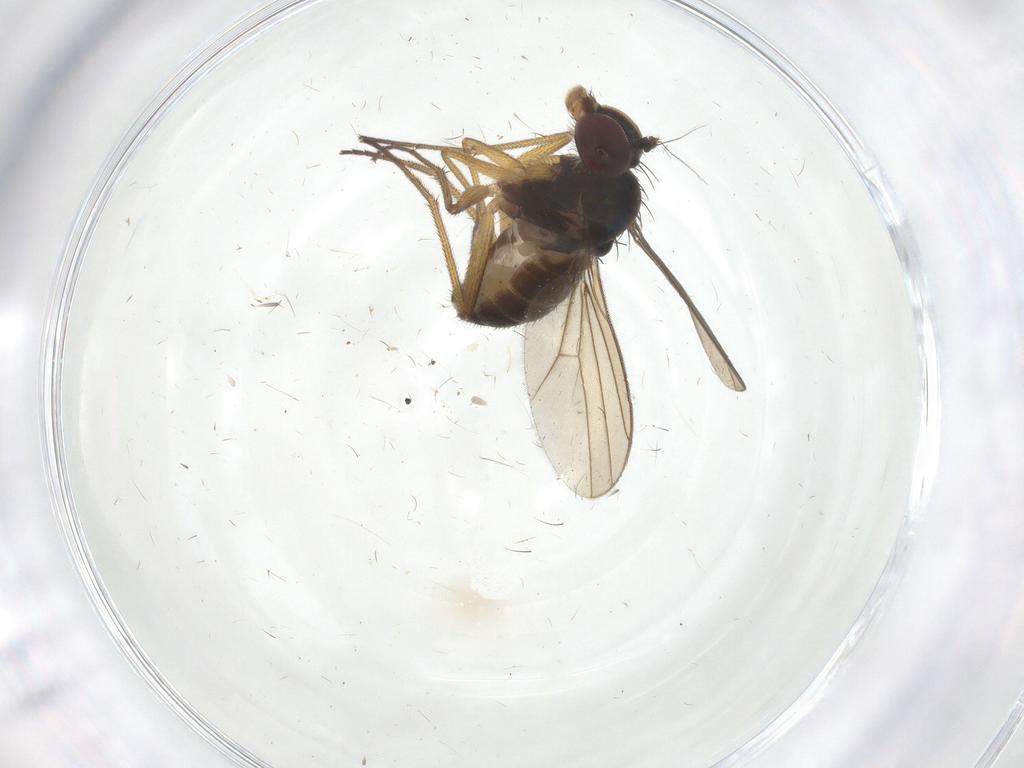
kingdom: Animalia
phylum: Arthropoda
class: Insecta
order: Diptera
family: Dolichopodidae
